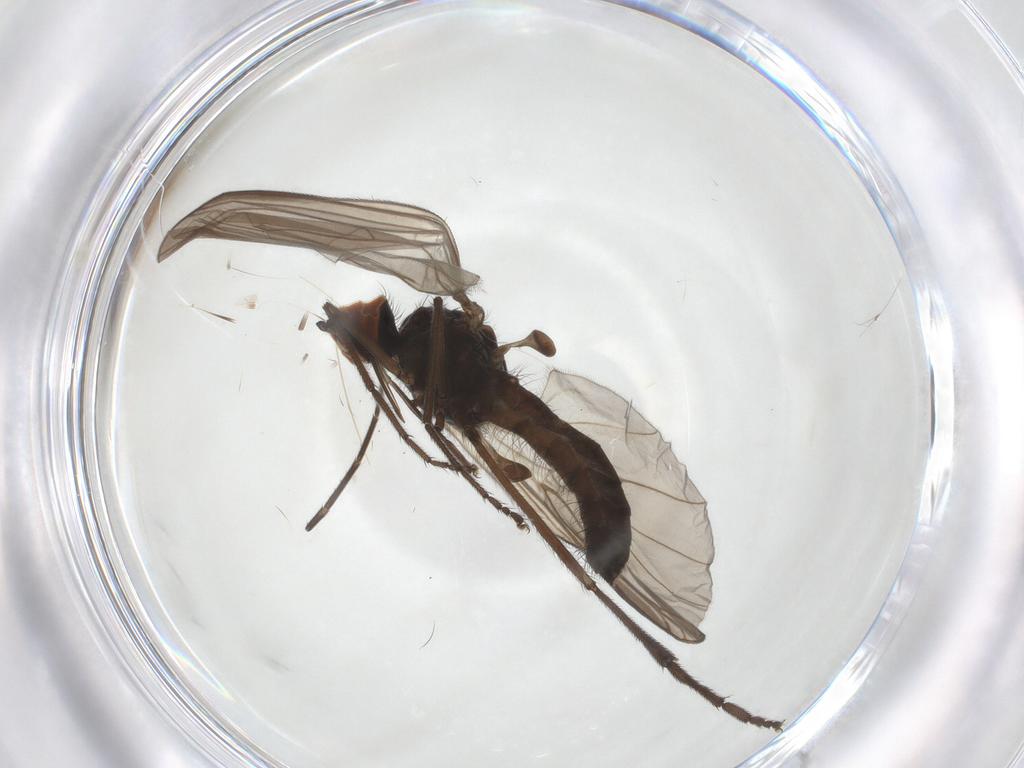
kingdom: Animalia
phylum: Arthropoda
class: Insecta
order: Diptera
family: Empididae
